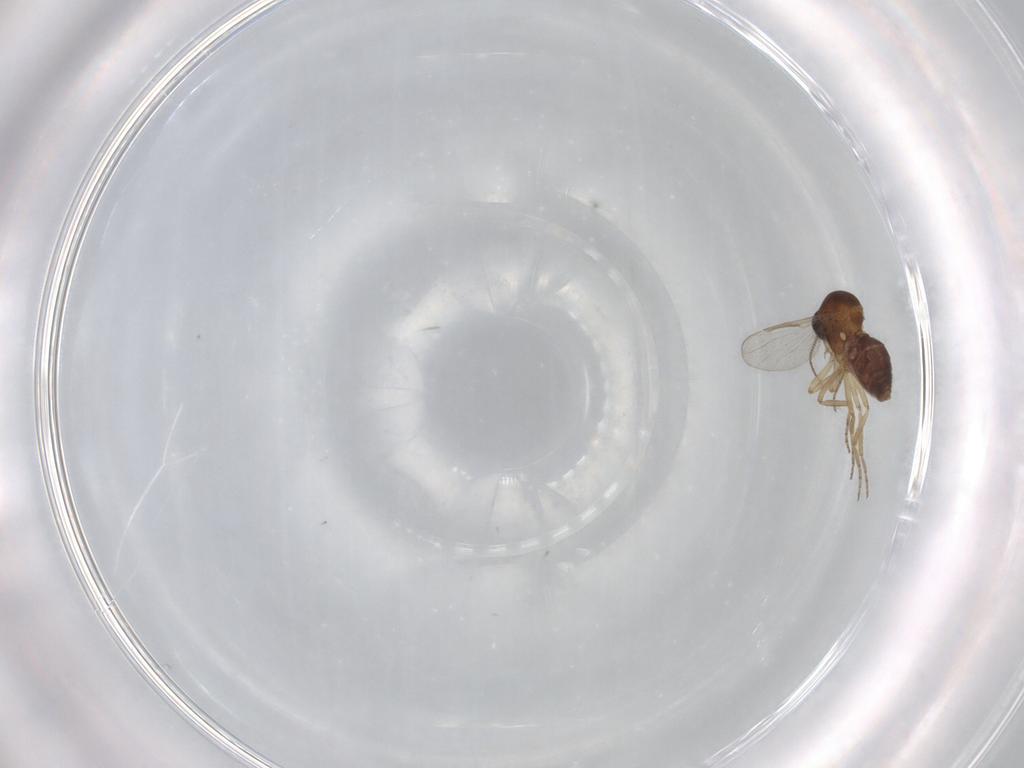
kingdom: Animalia
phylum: Arthropoda
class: Insecta
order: Diptera
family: Ceratopogonidae
